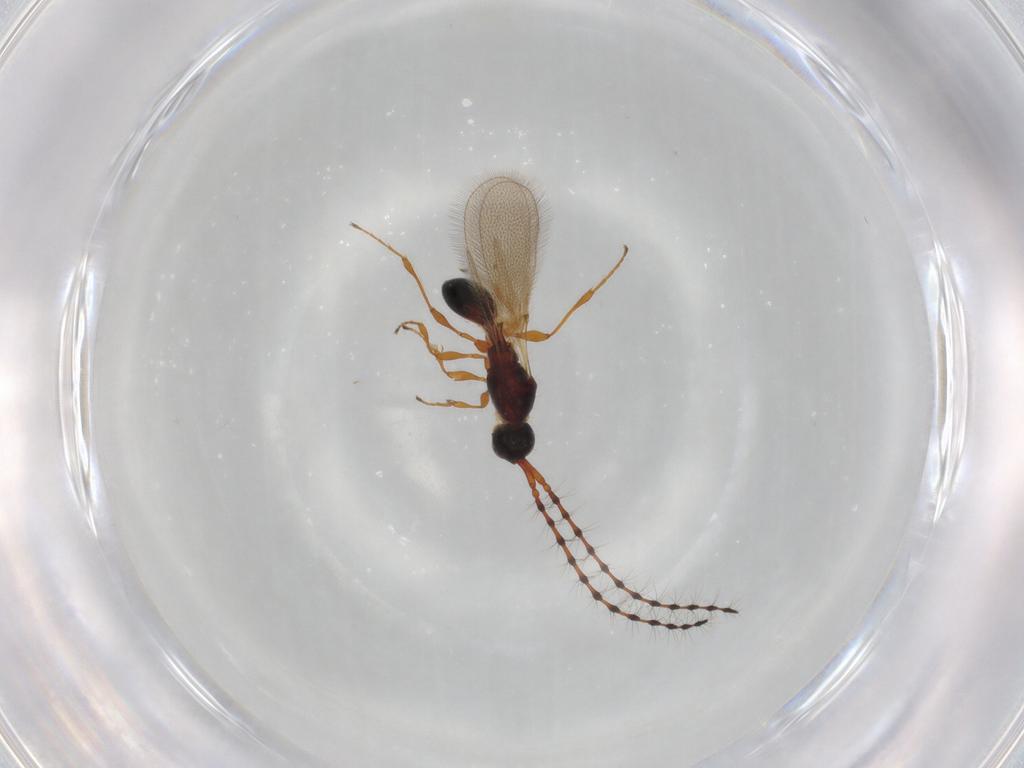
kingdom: Animalia
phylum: Arthropoda
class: Insecta
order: Hymenoptera
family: Diapriidae
